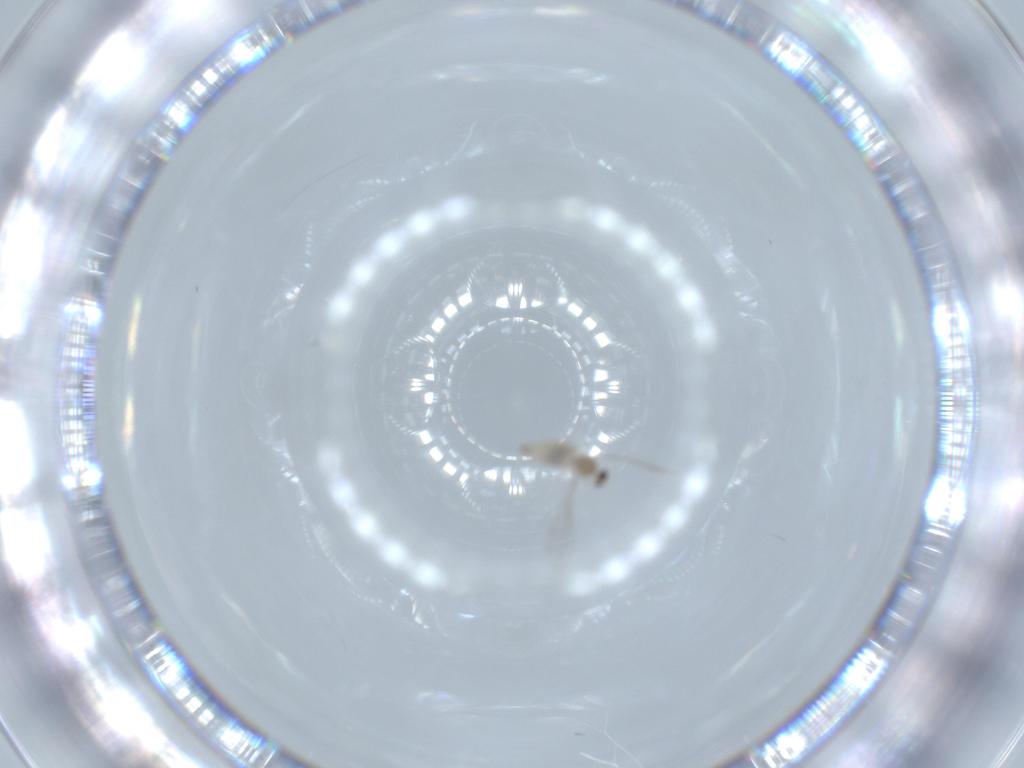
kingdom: Animalia
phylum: Arthropoda
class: Insecta
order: Diptera
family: Cecidomyiidae
